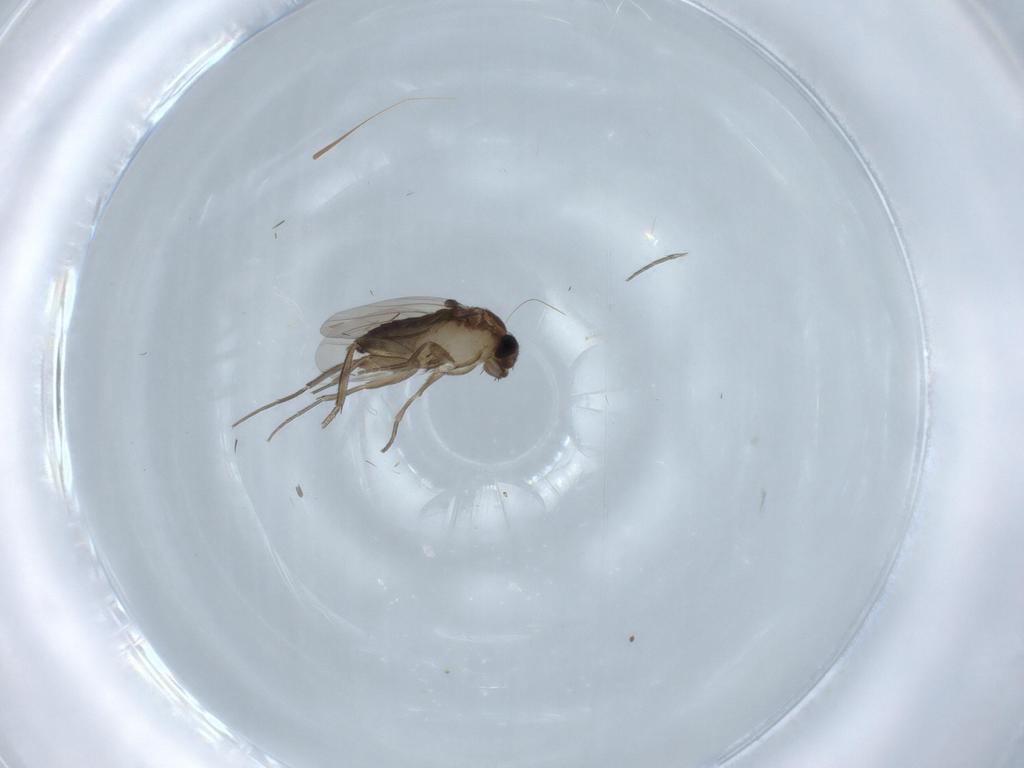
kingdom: Animalia
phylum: Arthropoda
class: Insecta
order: Diptera
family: Phoridae
